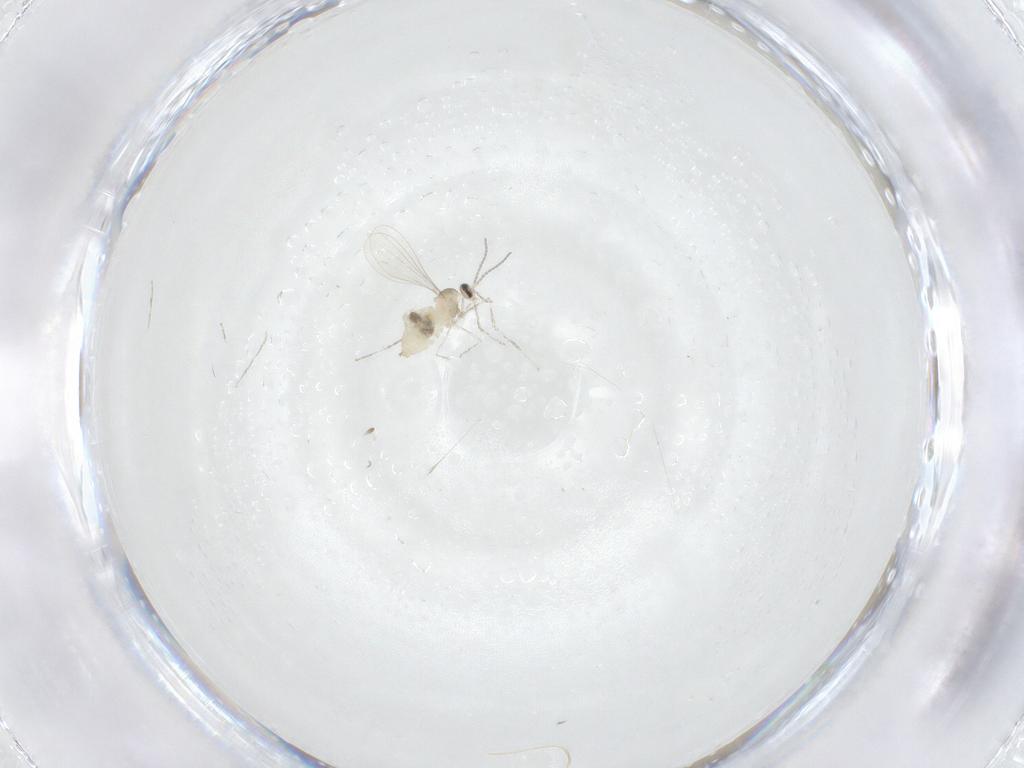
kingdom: Animalia
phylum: Arthropoda
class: Insecta
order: Diptera
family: Cecidomyiidae
